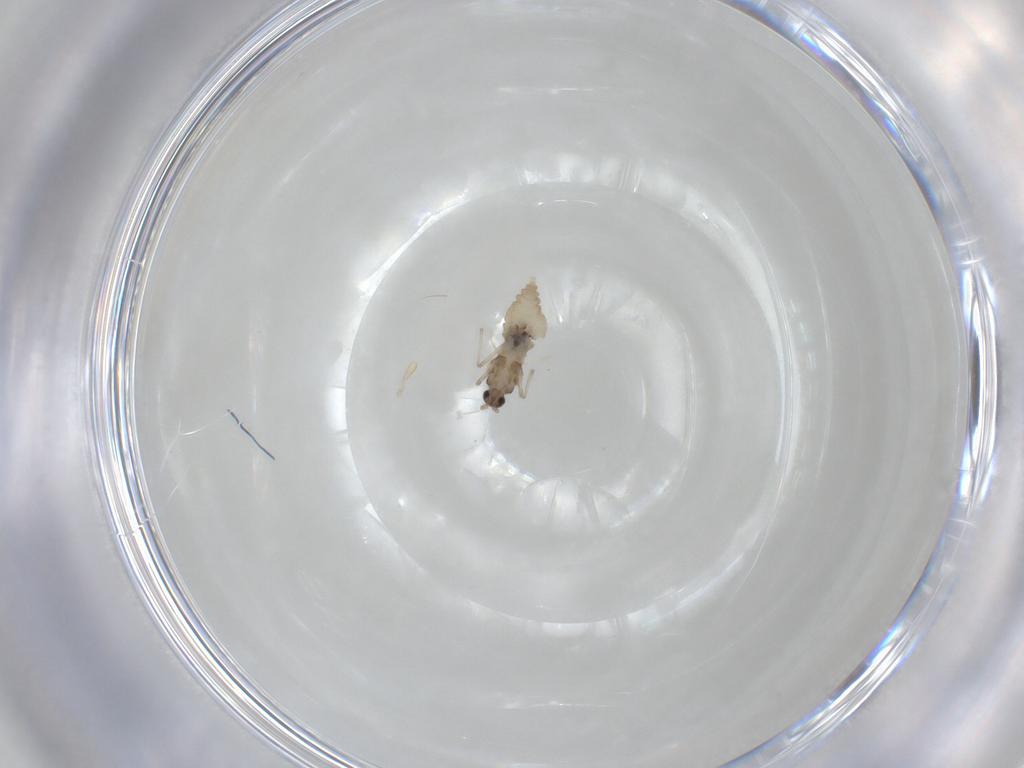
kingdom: Animalia
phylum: Arthropoda
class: Insecta
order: Diptera
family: Cecidomyiidae
